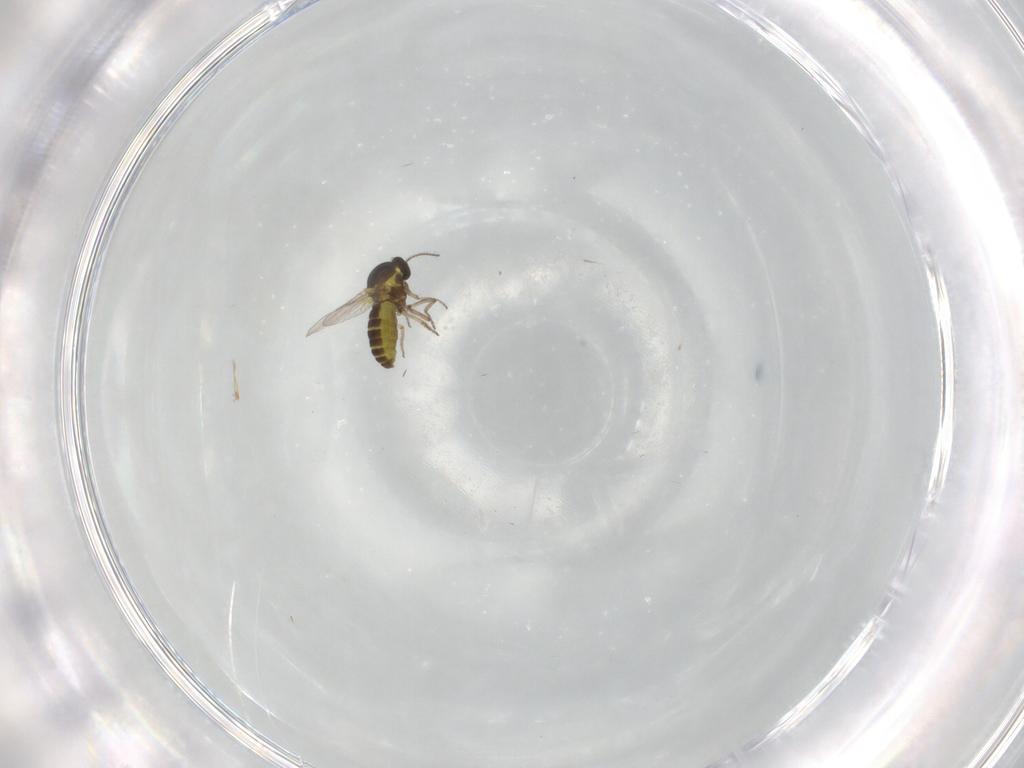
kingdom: Animalia
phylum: Arthropoda
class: Insecta
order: Diptera
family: Ceratopogonidae
